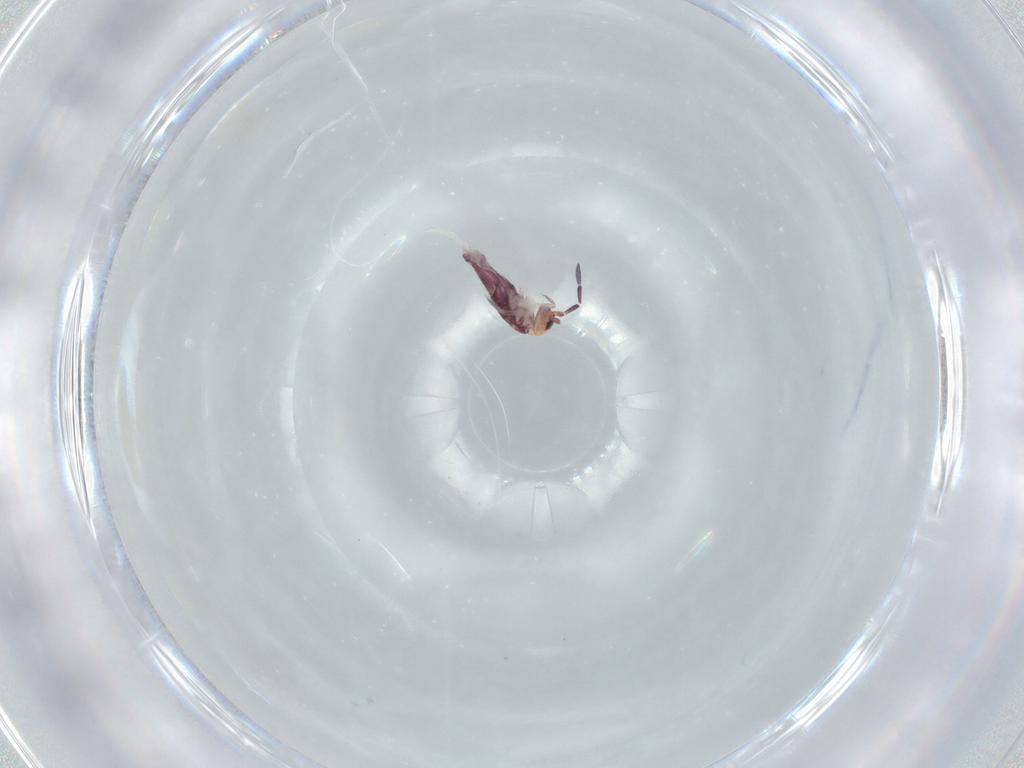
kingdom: Animalia
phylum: Arthropoda
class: Collembola
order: Entomobryomorpha
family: Entomobryidae
